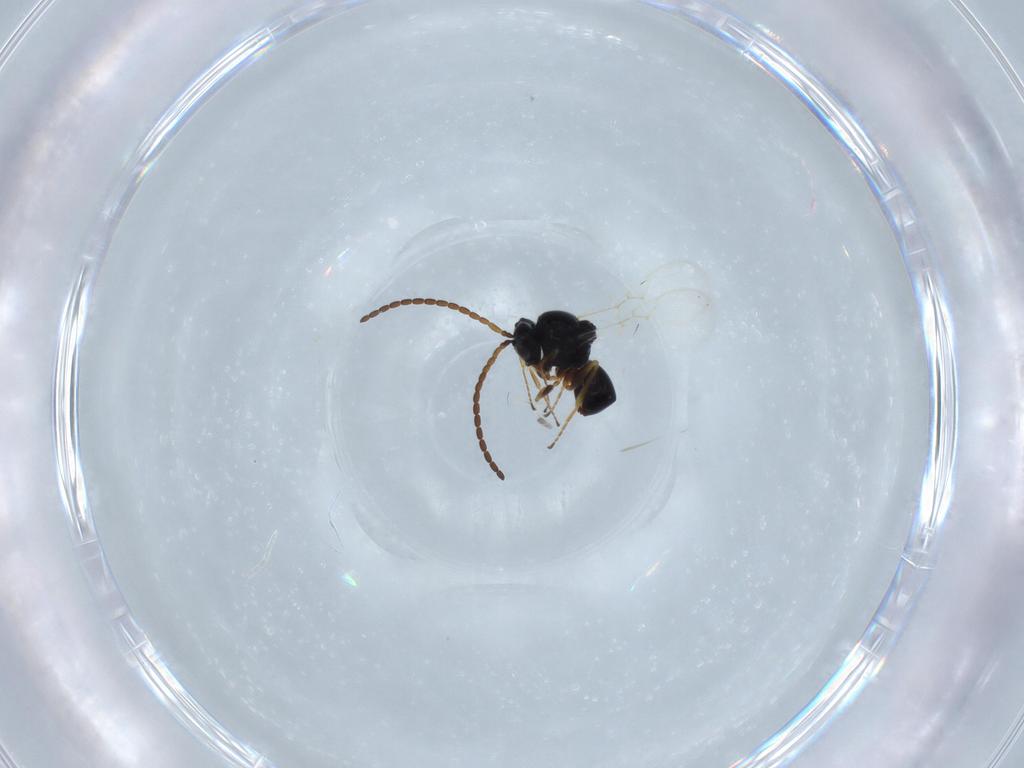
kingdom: Animalia
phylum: Arthropoda
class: Insecta
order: Hymenoptera
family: Figitidae
